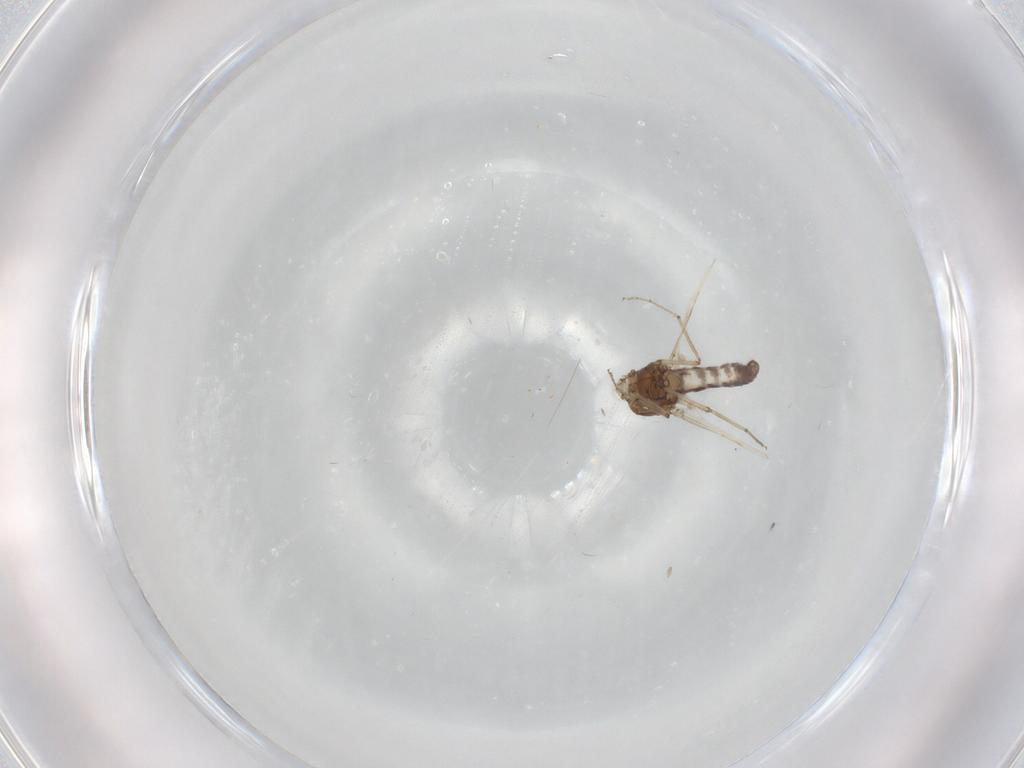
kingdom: Animalia
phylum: Arthropoda
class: Insecta
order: Diptera
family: Ceratopogonidae
